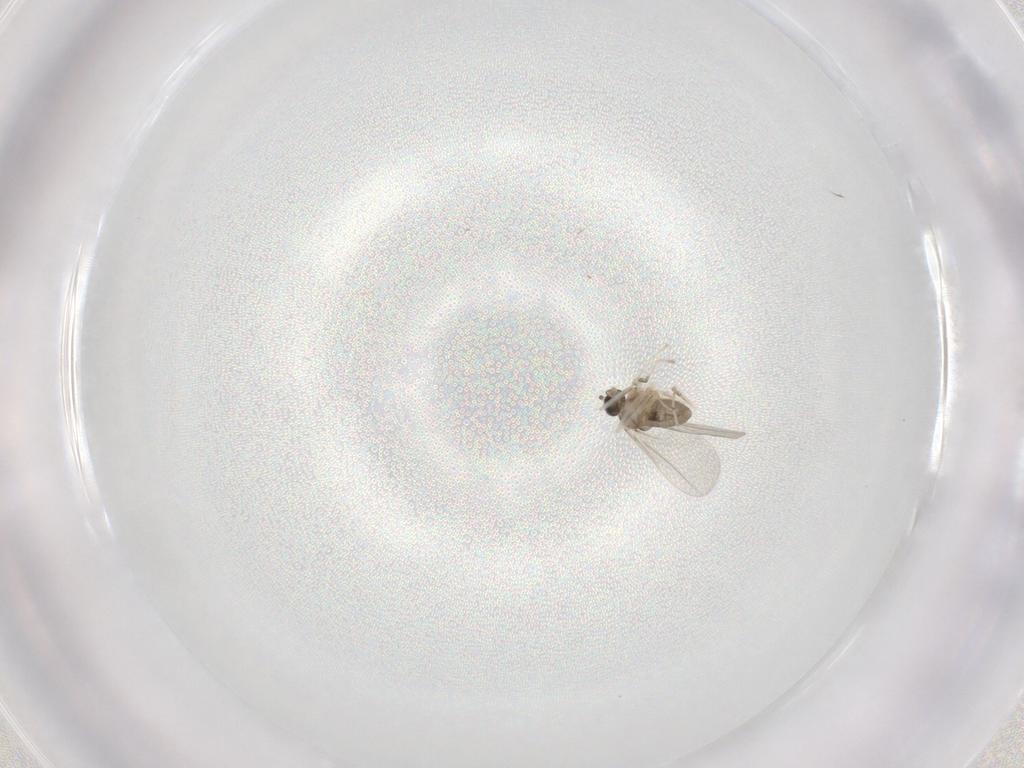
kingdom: Animalia
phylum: Arthropoda
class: Insecta
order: Diptera
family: Cecidomyiidae
